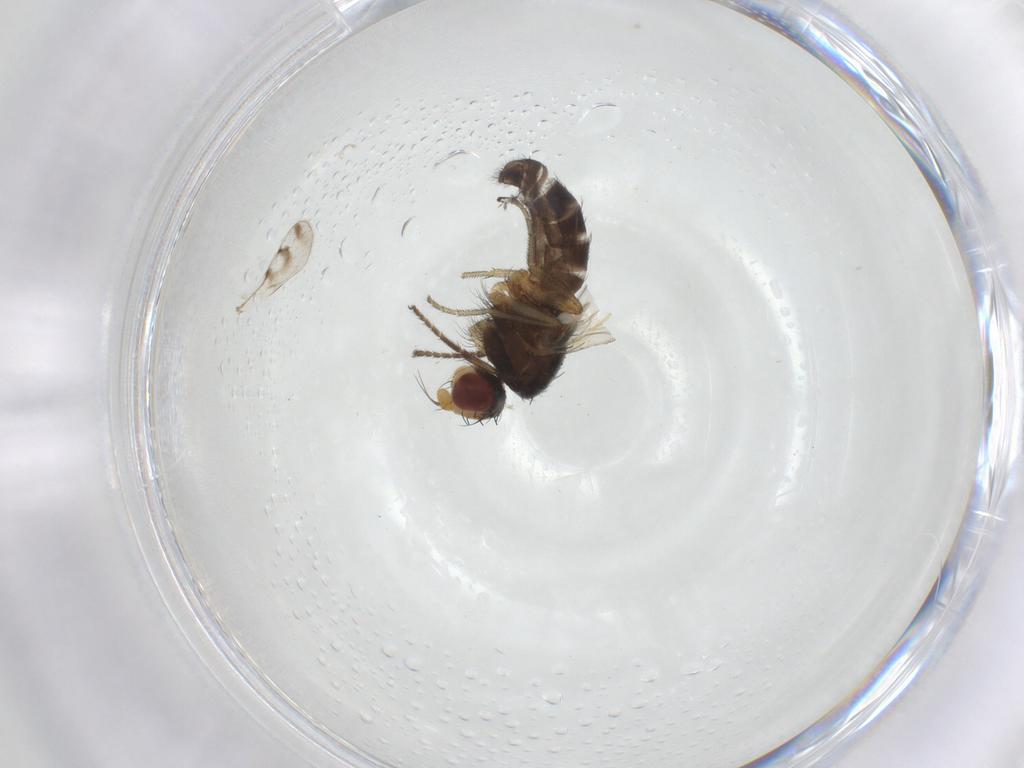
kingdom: Animalia
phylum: Arthropoda
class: Insecta
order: Diptera
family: Heleomyzidae
